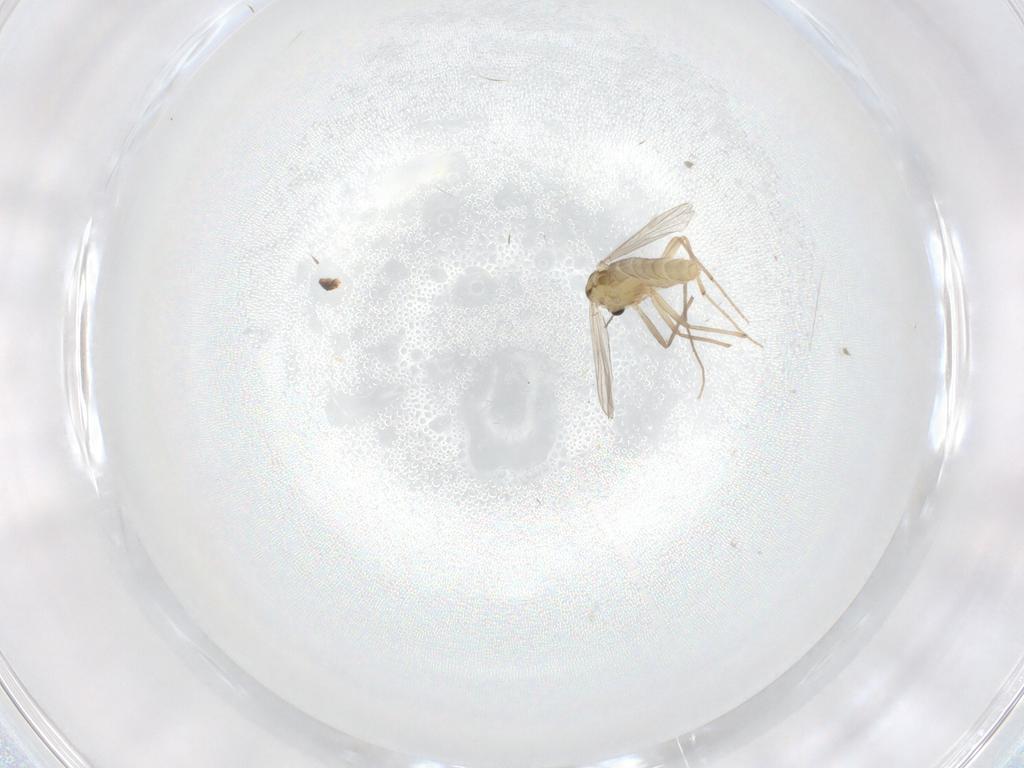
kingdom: Animalia
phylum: Arthropoda
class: Insecta
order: Diptera
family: Chironomidae
